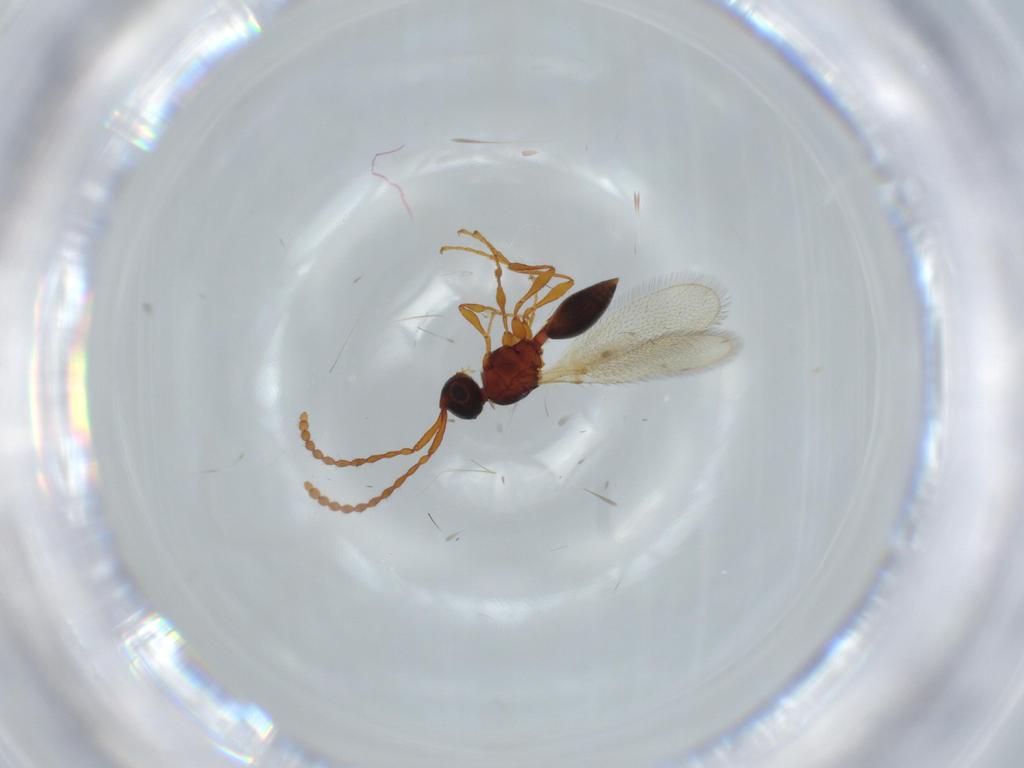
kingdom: Animalia
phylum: Arthropoda
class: Insecta
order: Hymenoptera
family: Diapriidae
